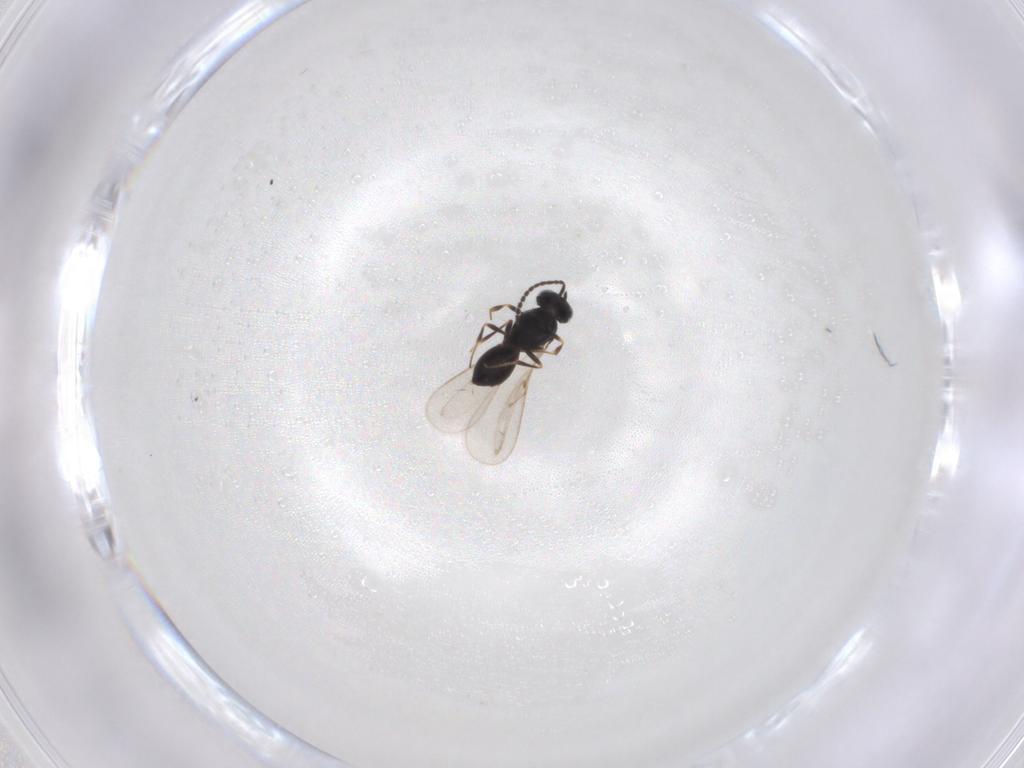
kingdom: Animalia
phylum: Arthropoda
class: Insecta
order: Hymenoptera
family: Scelionidae
